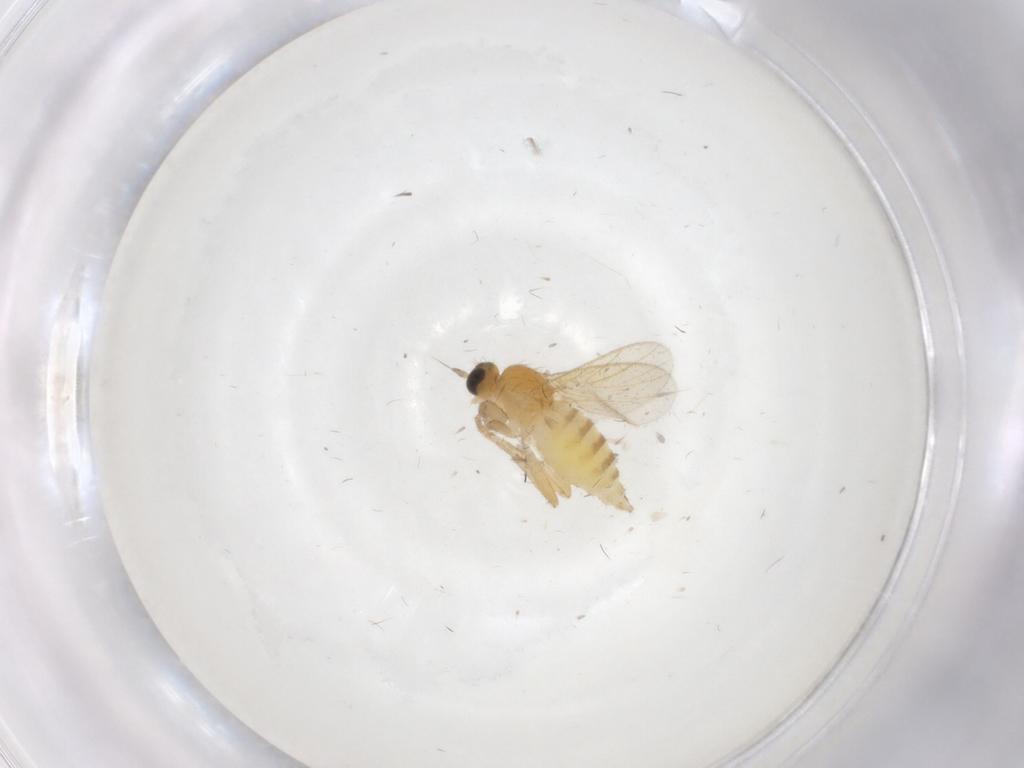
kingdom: Animalia
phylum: Arthropoda
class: Insecta
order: Diptera
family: Hybotidae
